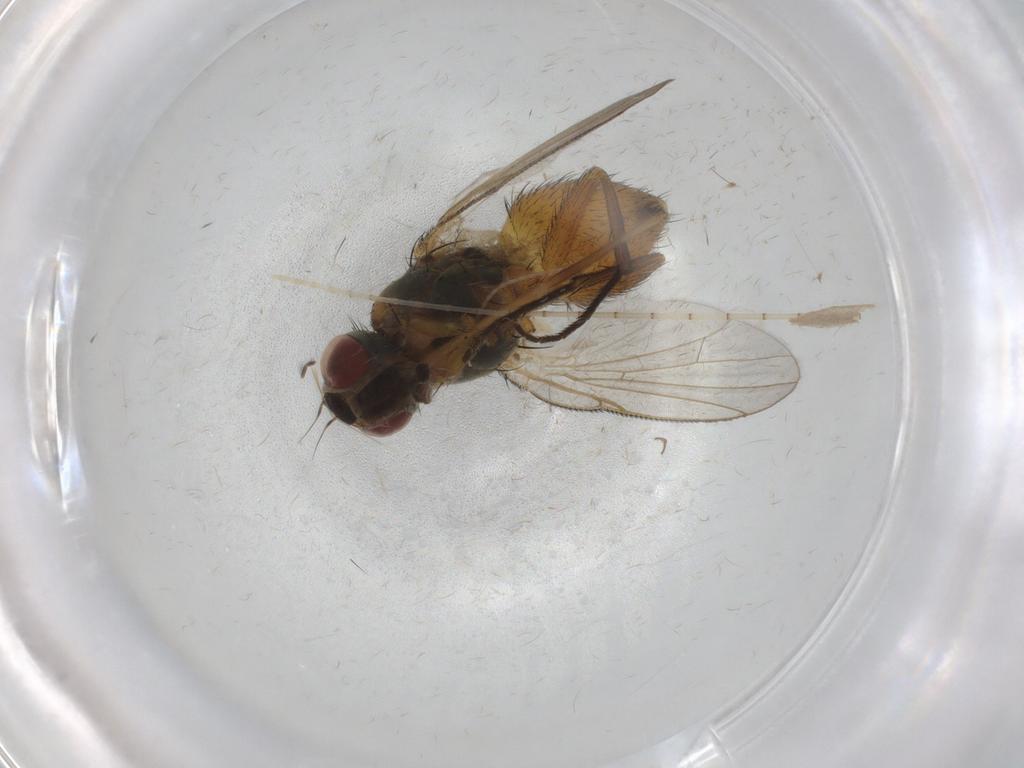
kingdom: Animalia
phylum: Arthropoda
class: Insecta
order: Diptera
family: Muscidae
